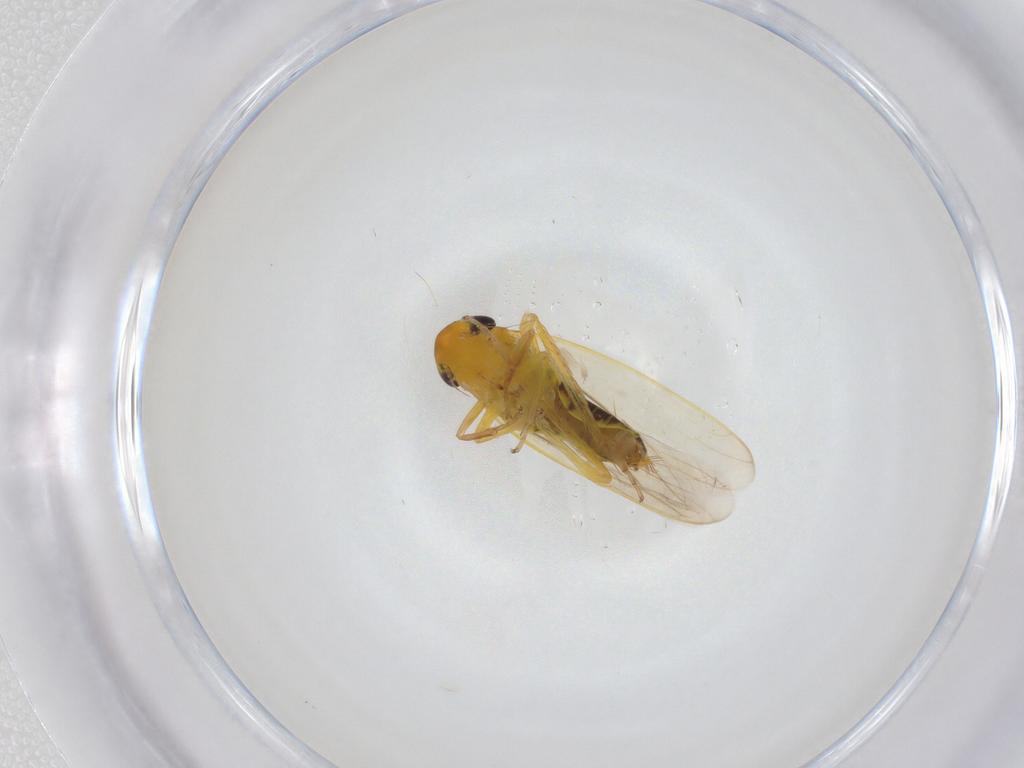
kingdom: Animalia
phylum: Arthropoda
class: Insecta
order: Hemiptera
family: Cicadellidae
